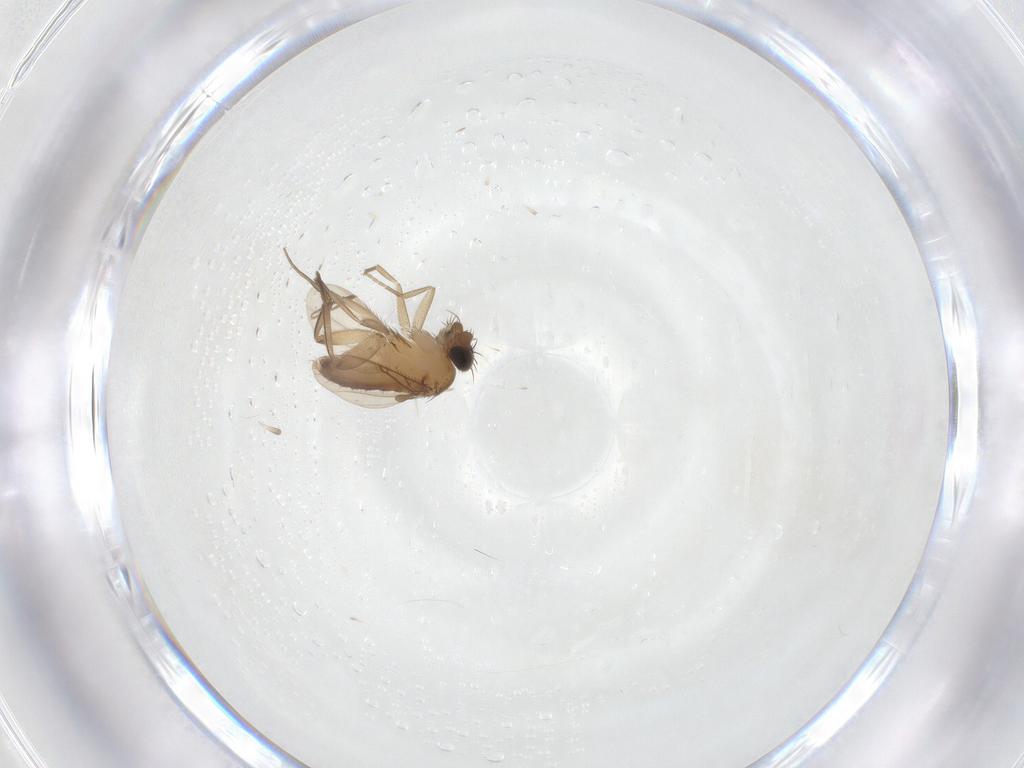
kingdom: Animalia
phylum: Arthropoda
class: Insecta
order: Diptera
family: Phoridae
